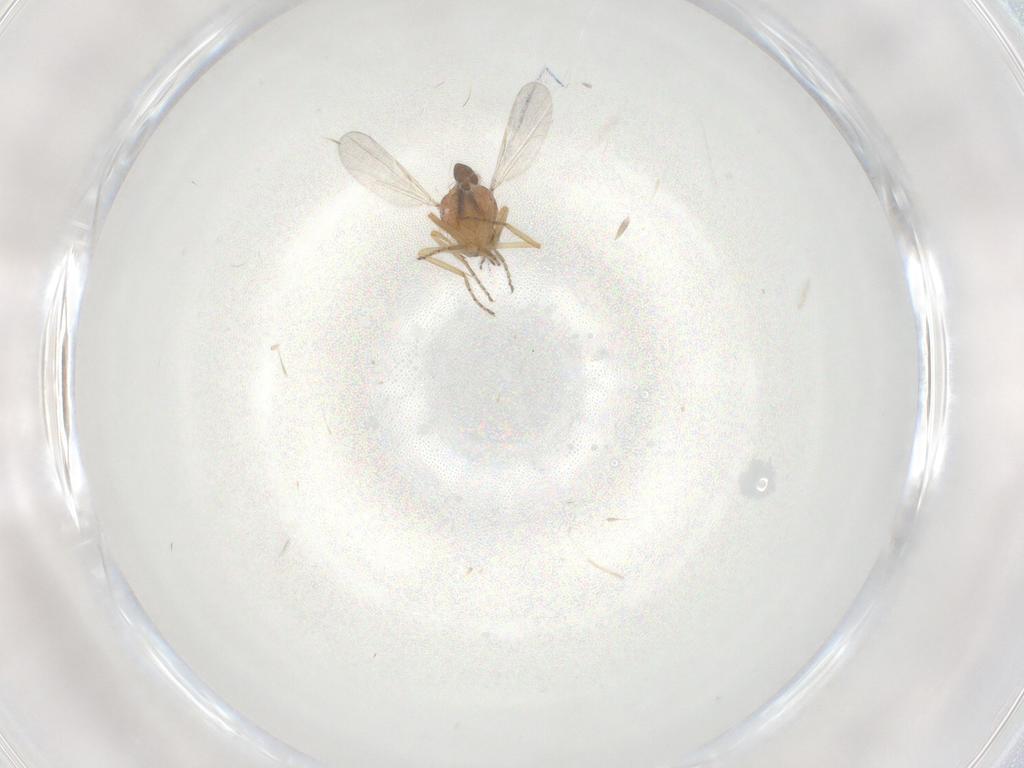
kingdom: Animalia
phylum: Arthropoda
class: Insecta
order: Diptera
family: Ceratopogonidae
